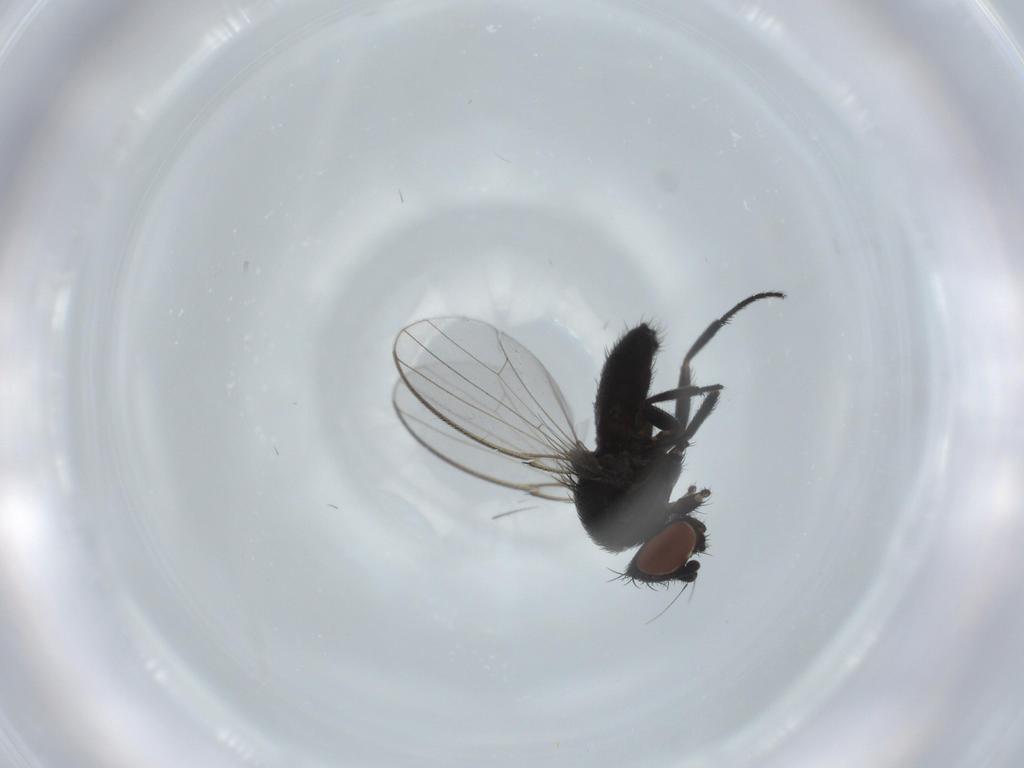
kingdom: Animalia
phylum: Arthropoda
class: Insecta
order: Diptera
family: Milichiidae
